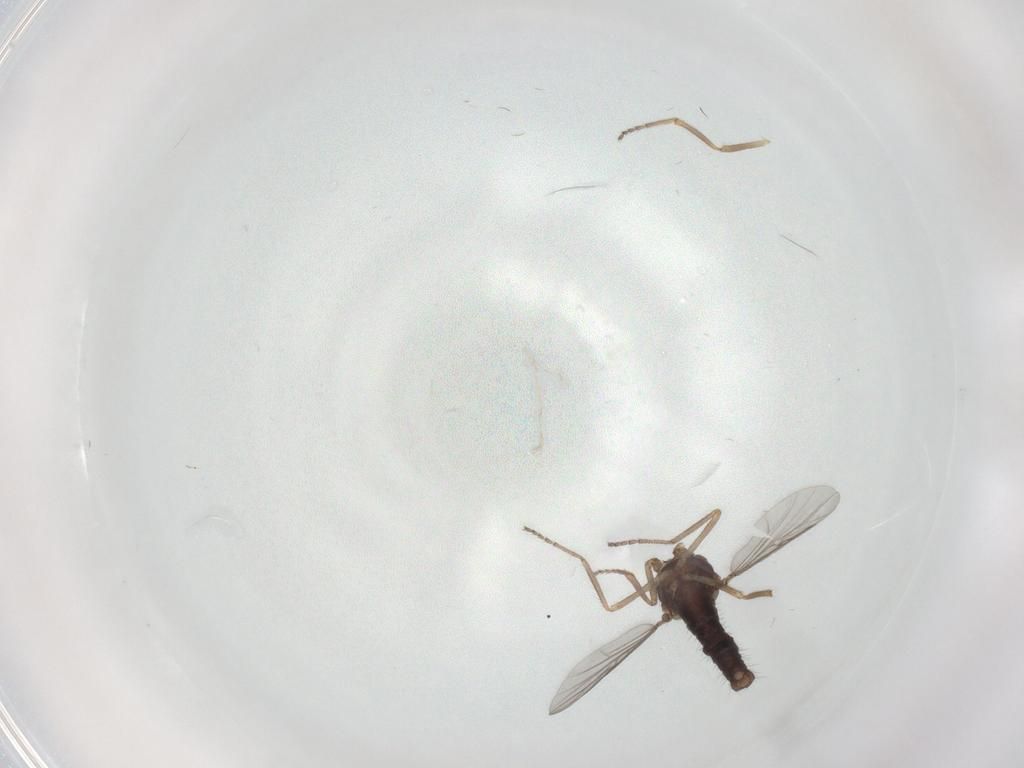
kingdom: Animalia
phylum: Arthropoda
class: Insecta
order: Diptera
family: Ceratopogonidae
